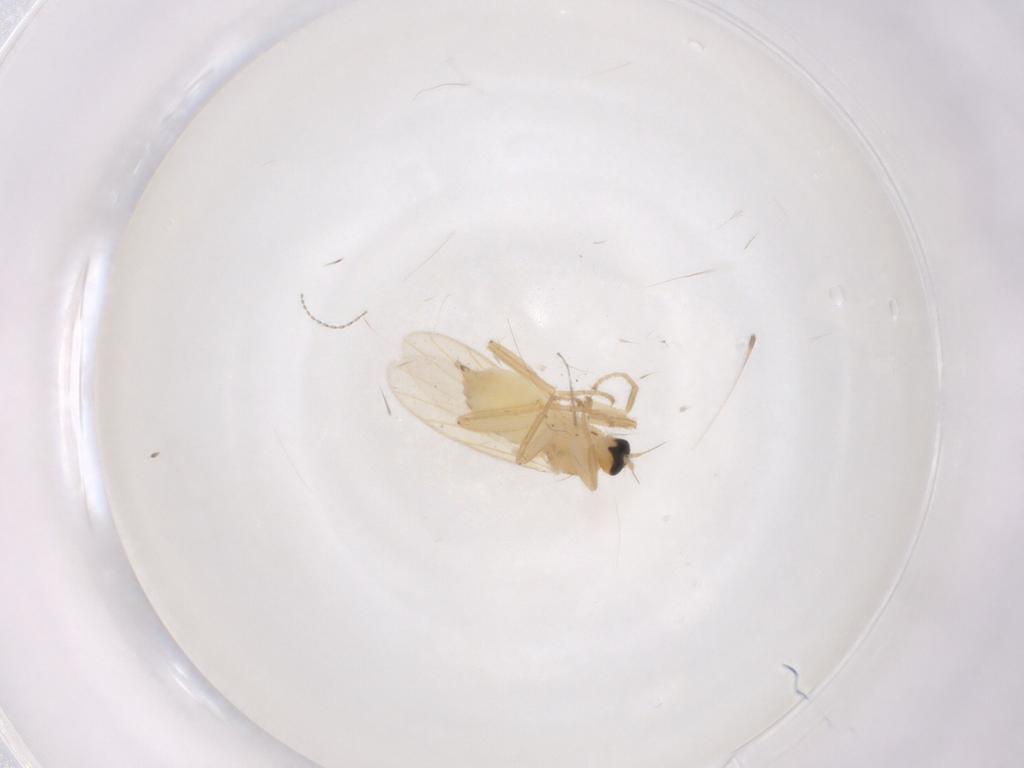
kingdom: Animalia
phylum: Arthropoda
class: Insecta
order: Diptera
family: Hybotidae
